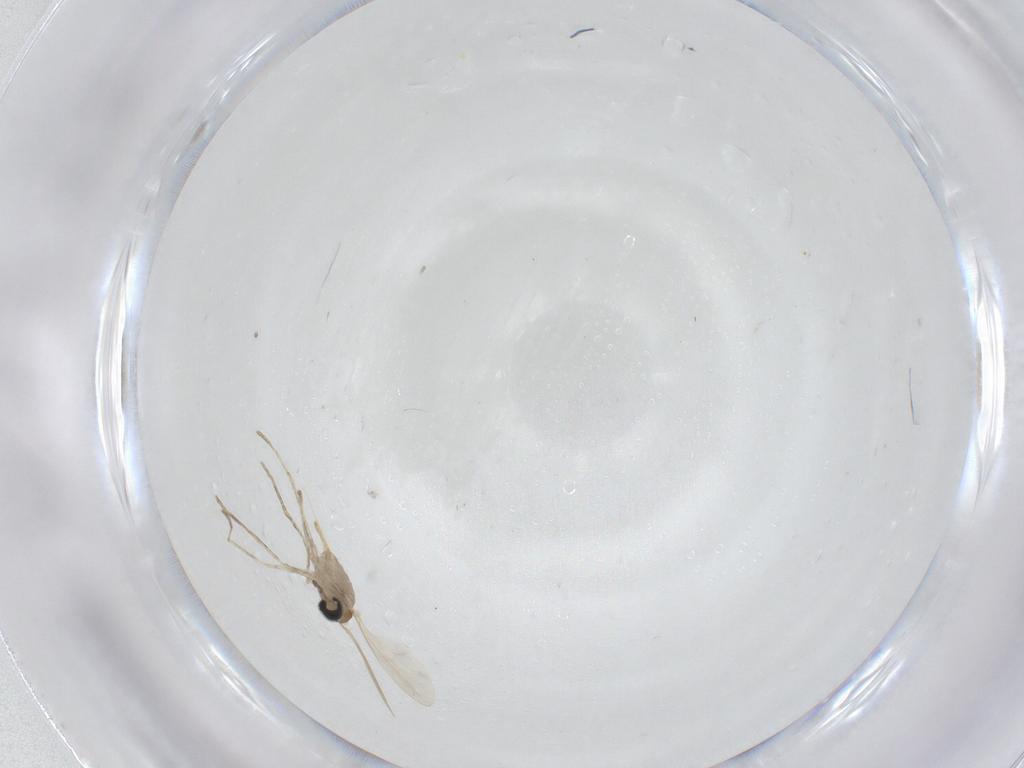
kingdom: Animalia
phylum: Arthropoda
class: Insecta
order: Diptera
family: Sphaeroceridae
